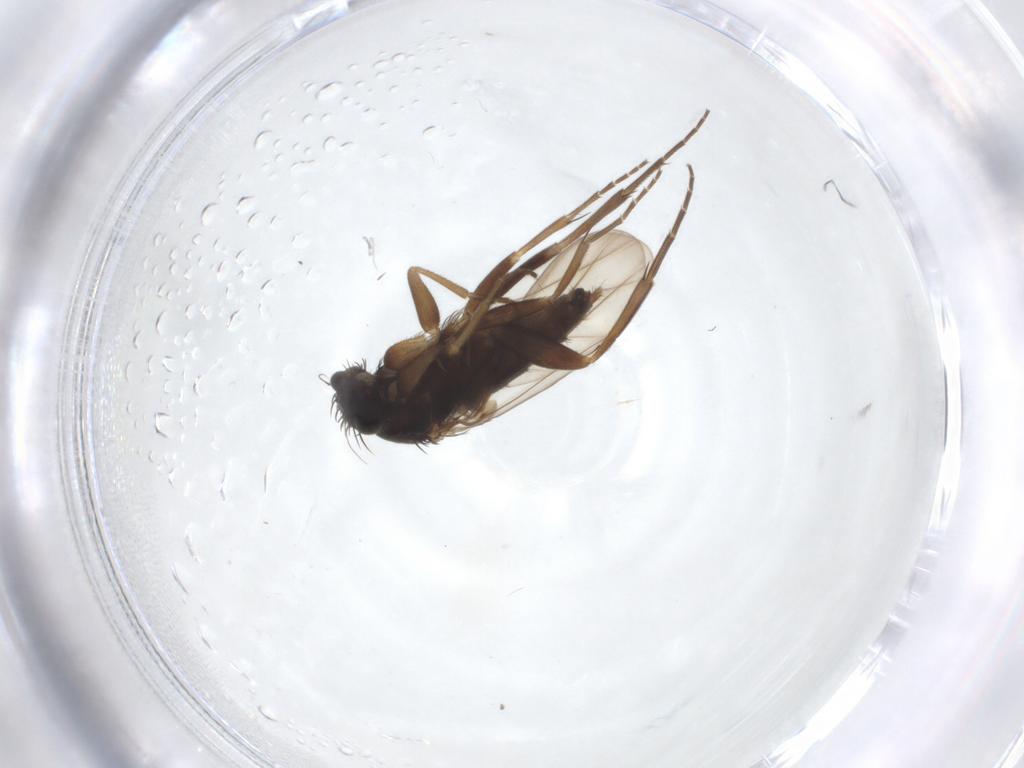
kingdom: Animalia
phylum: Arthropoda
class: Insecta
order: Diptera
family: Phoridae
